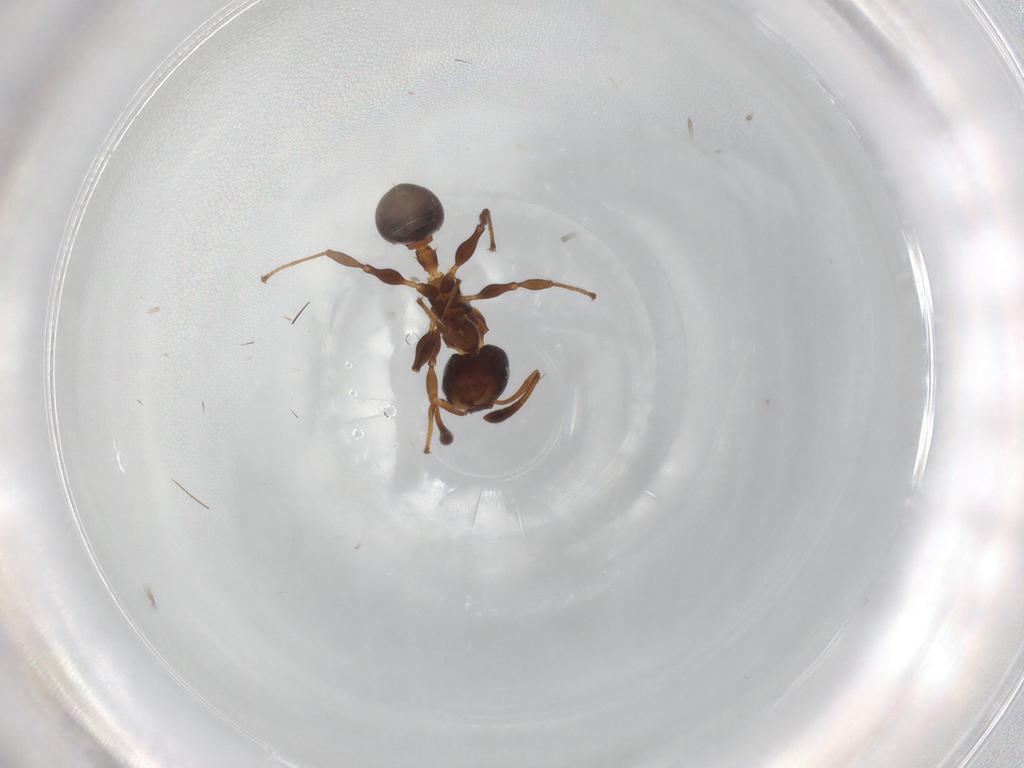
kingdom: Animalia
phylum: Arthropoda
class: Insecta
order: Hymenoptera
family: Formicidae
